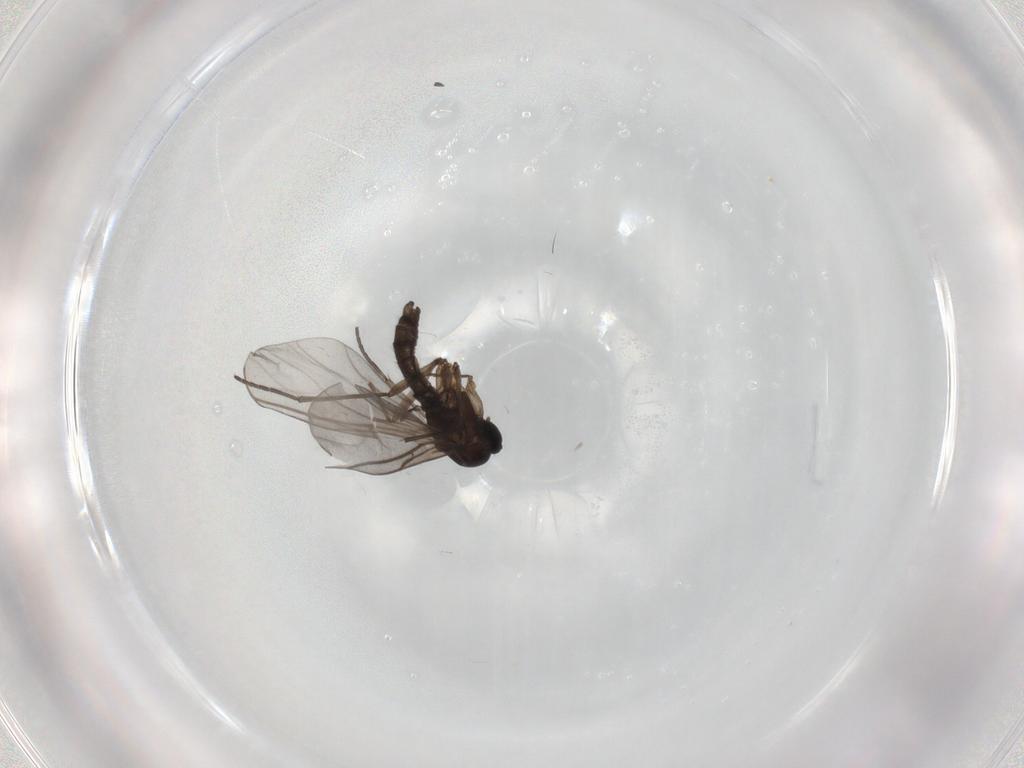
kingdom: Animalia
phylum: Arthropoda
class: Insecta
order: Diptera
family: Sciaridae
